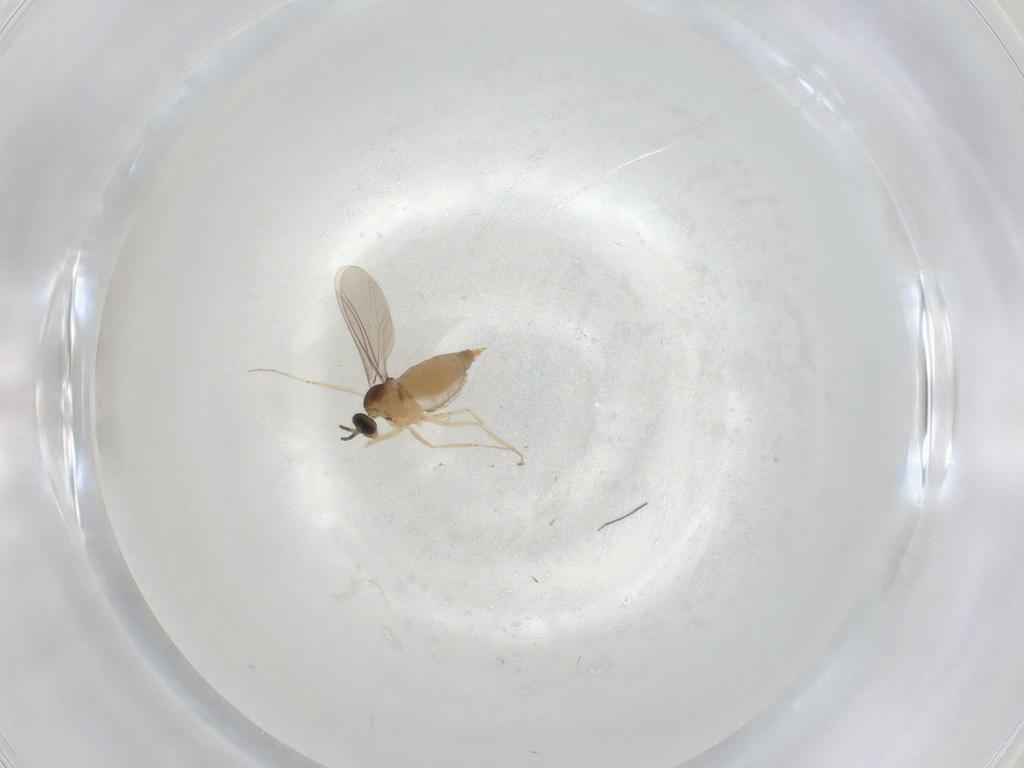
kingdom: Animalia
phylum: Arthropoda
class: Insecta
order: Diptera
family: Cecidomyiidae
